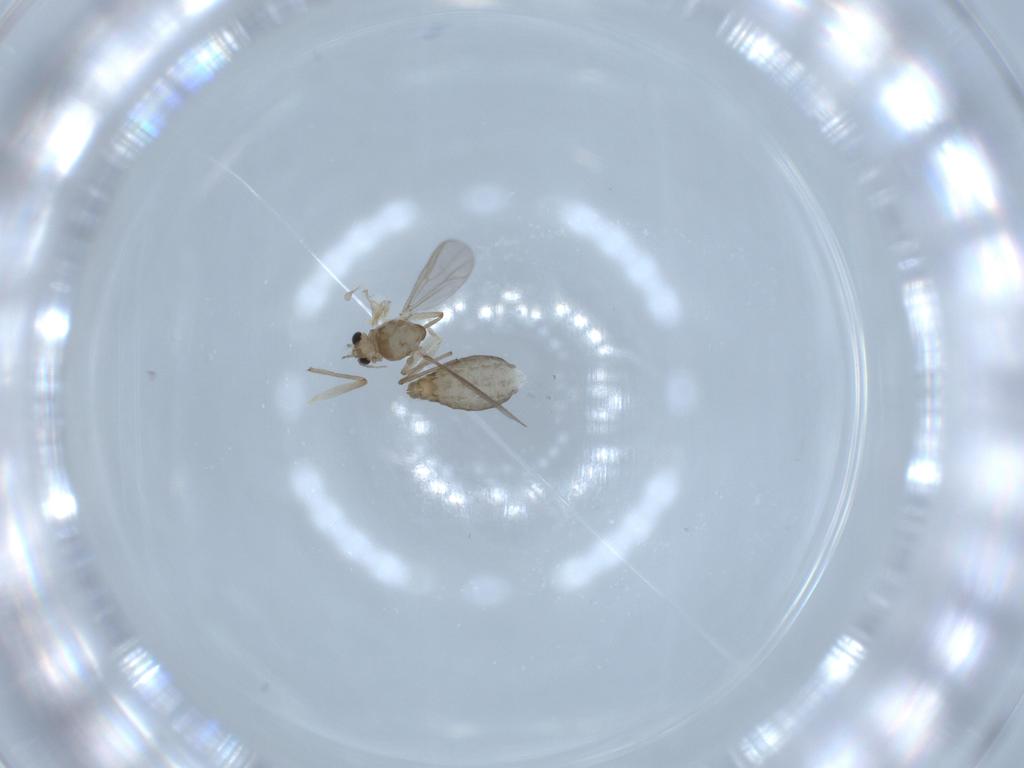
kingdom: Animalia
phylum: Arthropoda
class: Insecta
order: Diptera
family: Chironomidae
